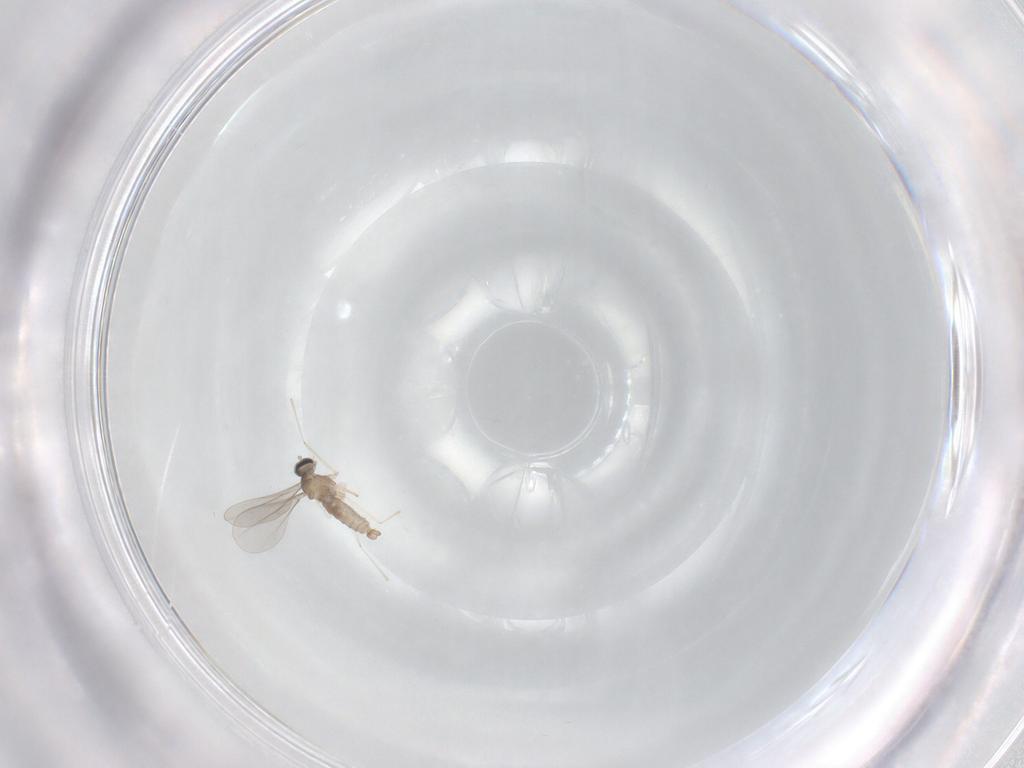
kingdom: Animalia
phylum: Arthropoda
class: Insecta
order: Diptera
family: Cecidomyiidae
